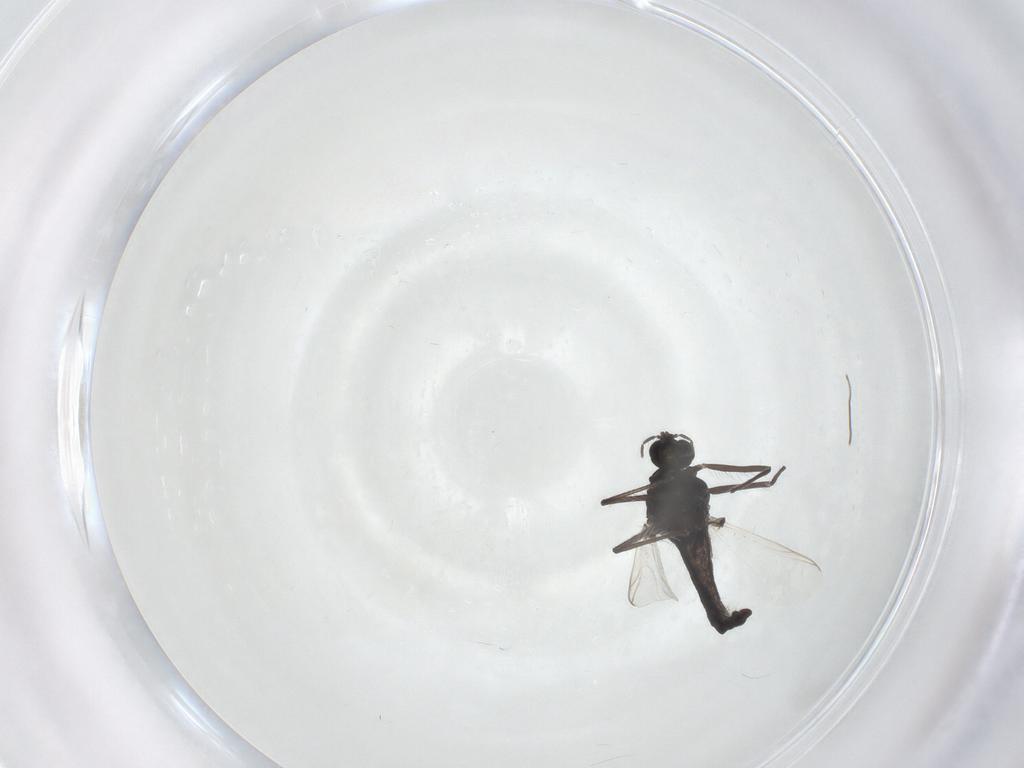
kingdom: Animalia
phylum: Arthropoda
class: Insecta
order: Diptera
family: Chironomidae
